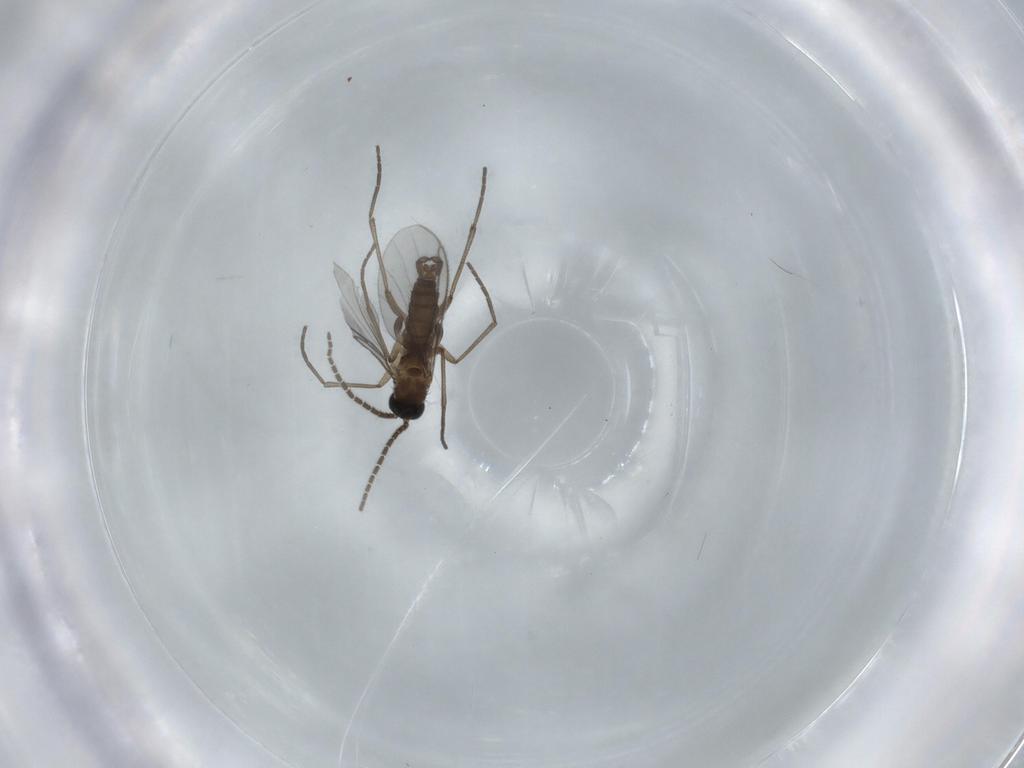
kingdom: Animalia
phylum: Arthropoda
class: Insecta
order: Diptera
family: Sciaridae
